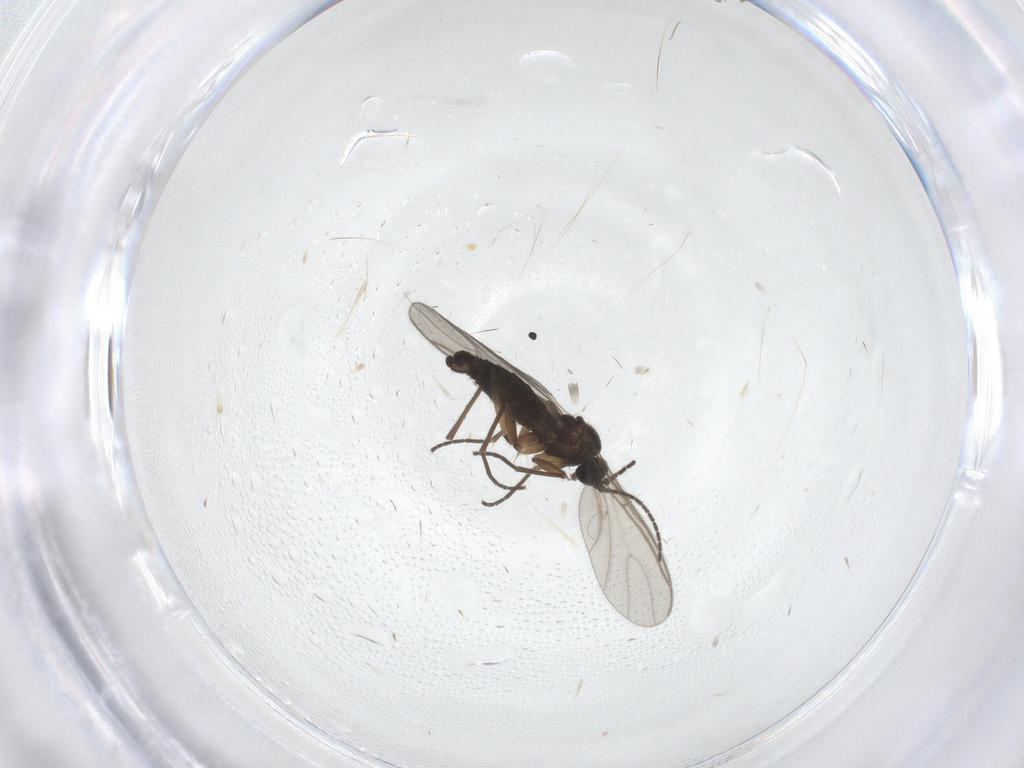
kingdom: Animalia
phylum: Arthropoda
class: Insecta
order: Diptera
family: Sciaridae
